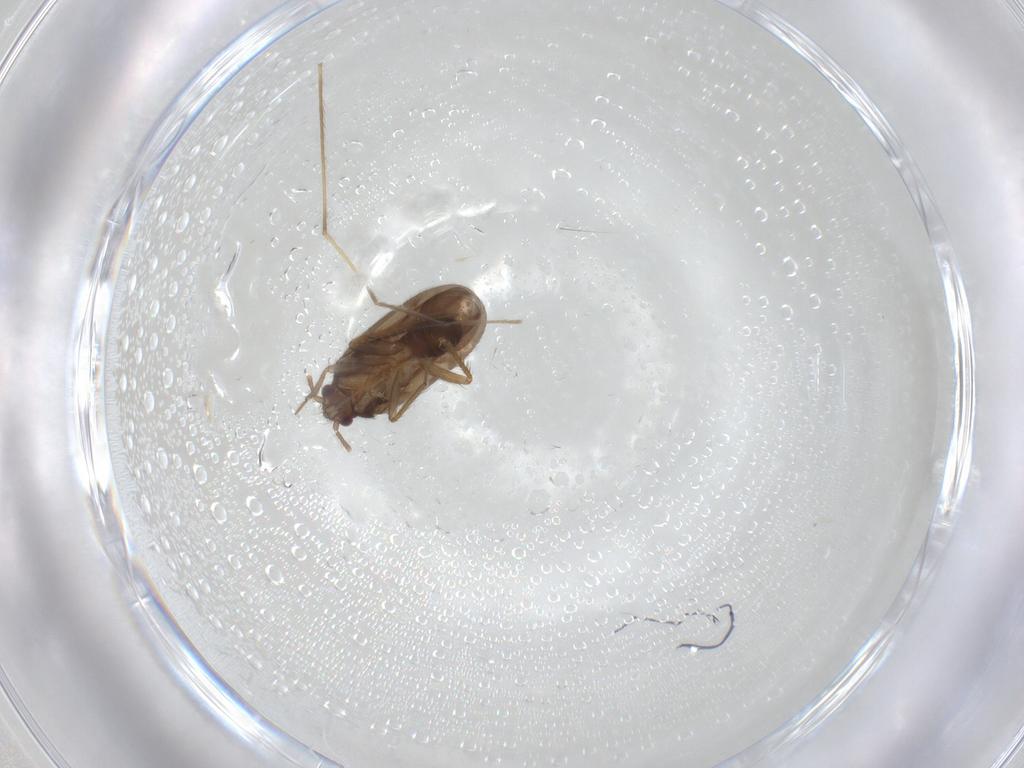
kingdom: Animalia
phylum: Arthropoda
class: Insecta
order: Hemiptera
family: Ceratocombidae
